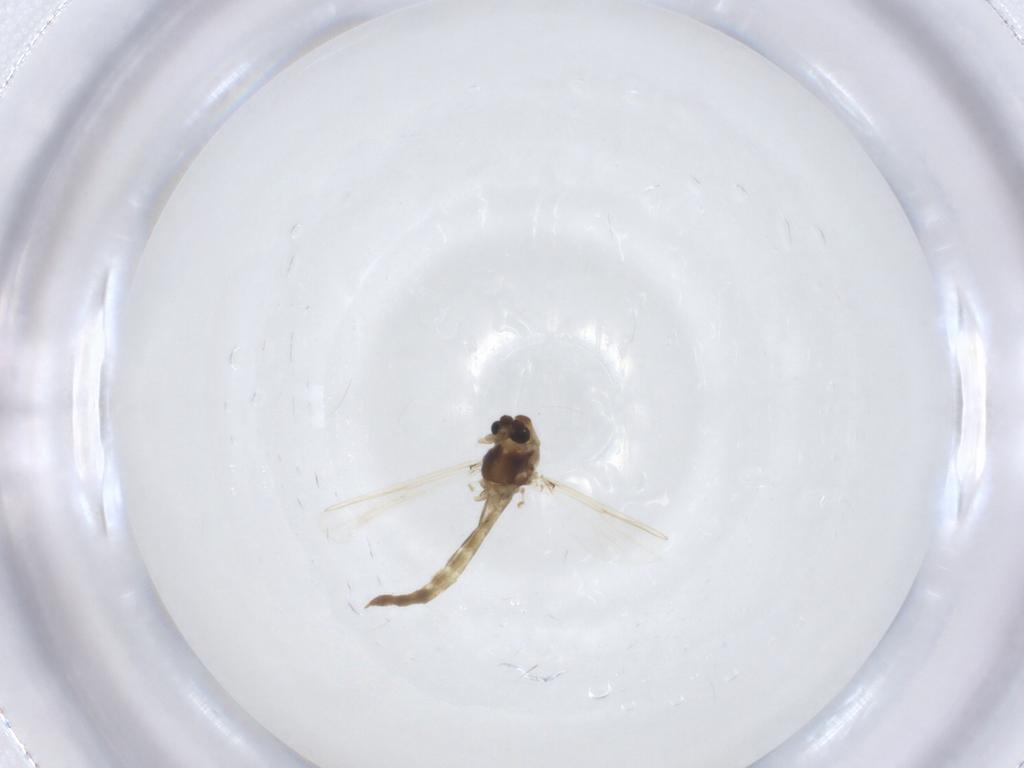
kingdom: Animalia
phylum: Arthropoda
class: Insecta
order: Diptera
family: Chironomidae
